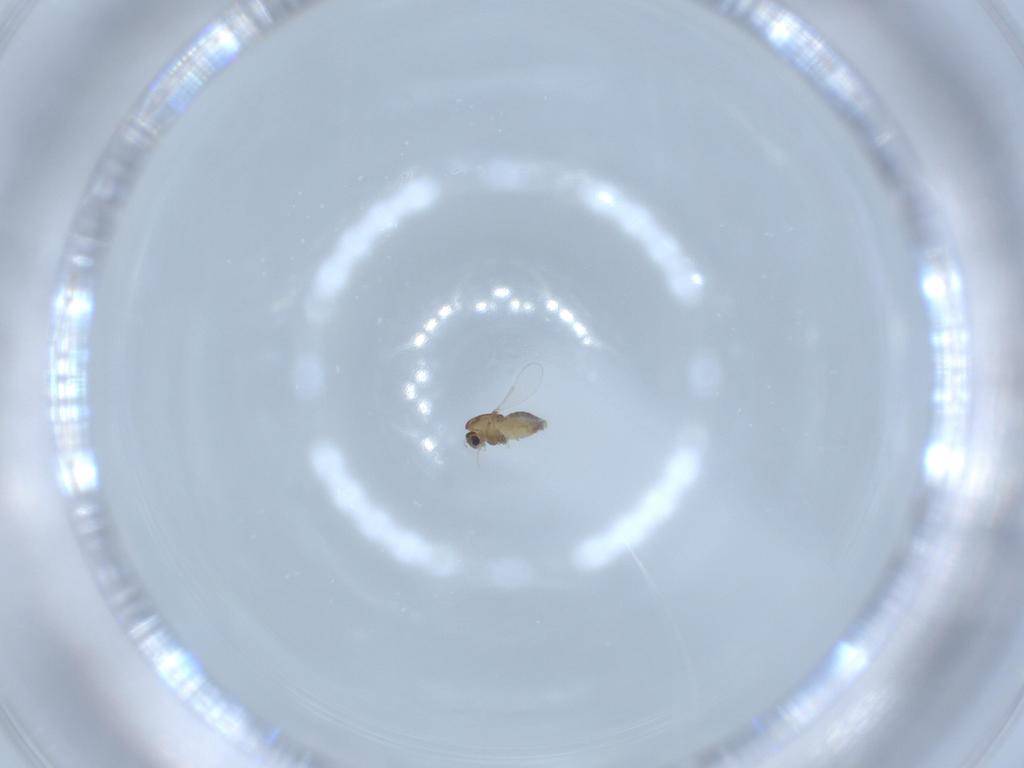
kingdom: Animalia
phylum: Arthropoda
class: Insecta
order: Diptera
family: Chironomidae
